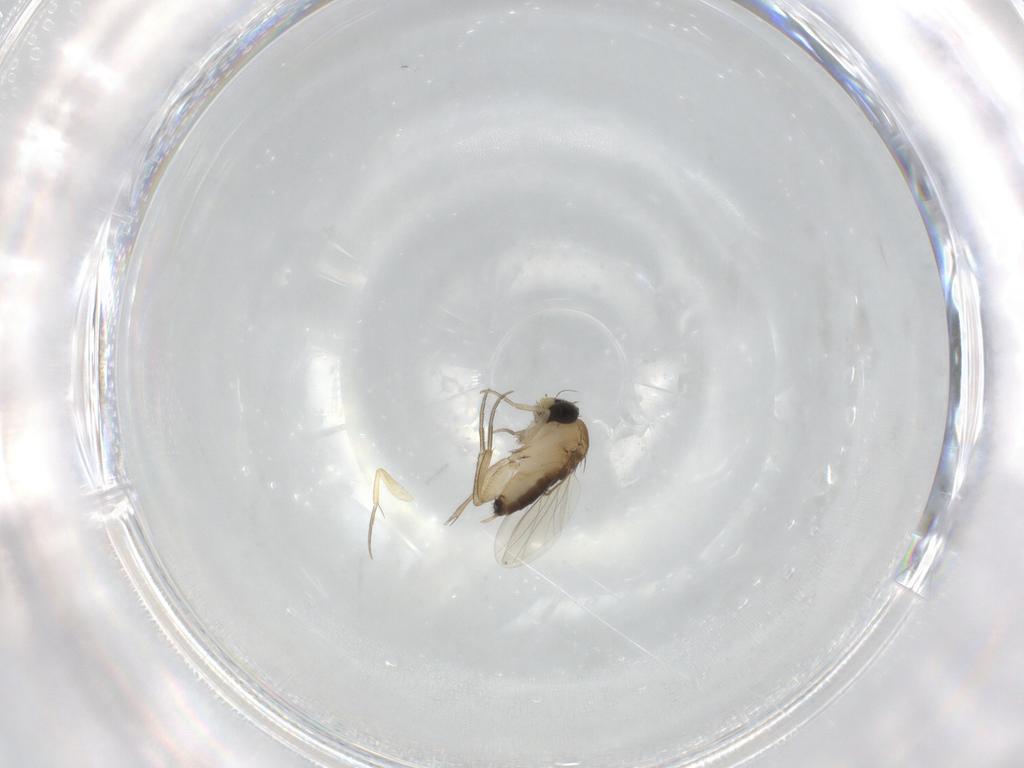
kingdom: Animalia
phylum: Arthropoda
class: Insecta
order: Diptera
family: Phoridae
